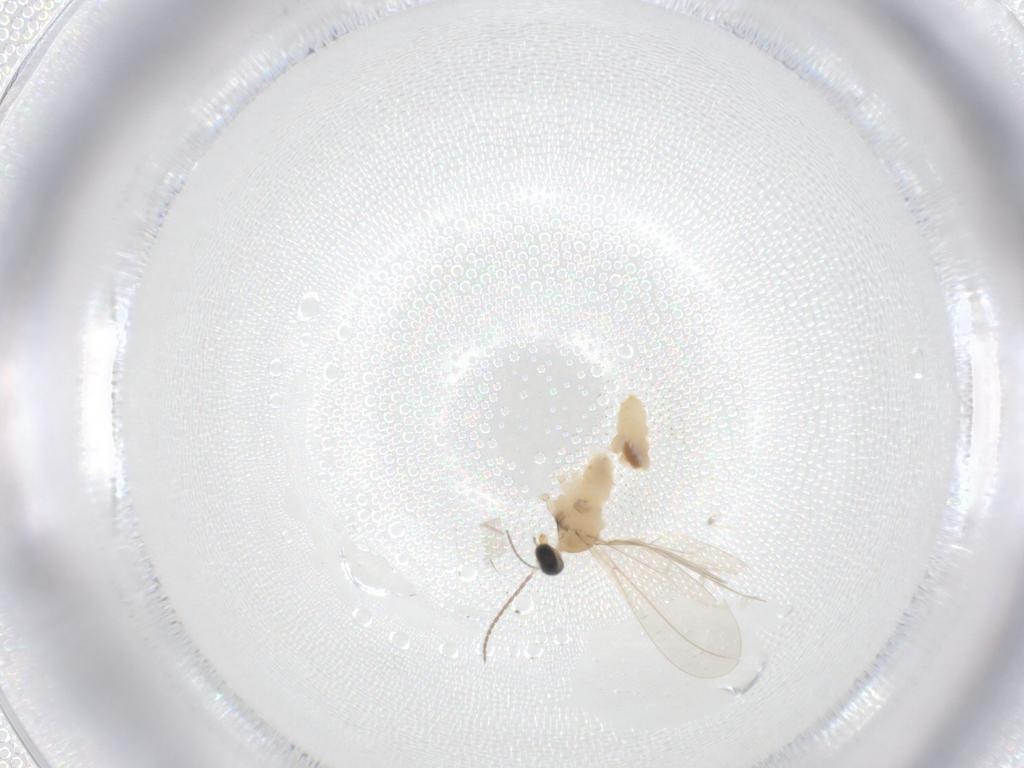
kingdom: Animalia
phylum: Arthropoda
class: Insecta
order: Diptera
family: Cecidomyiidae
